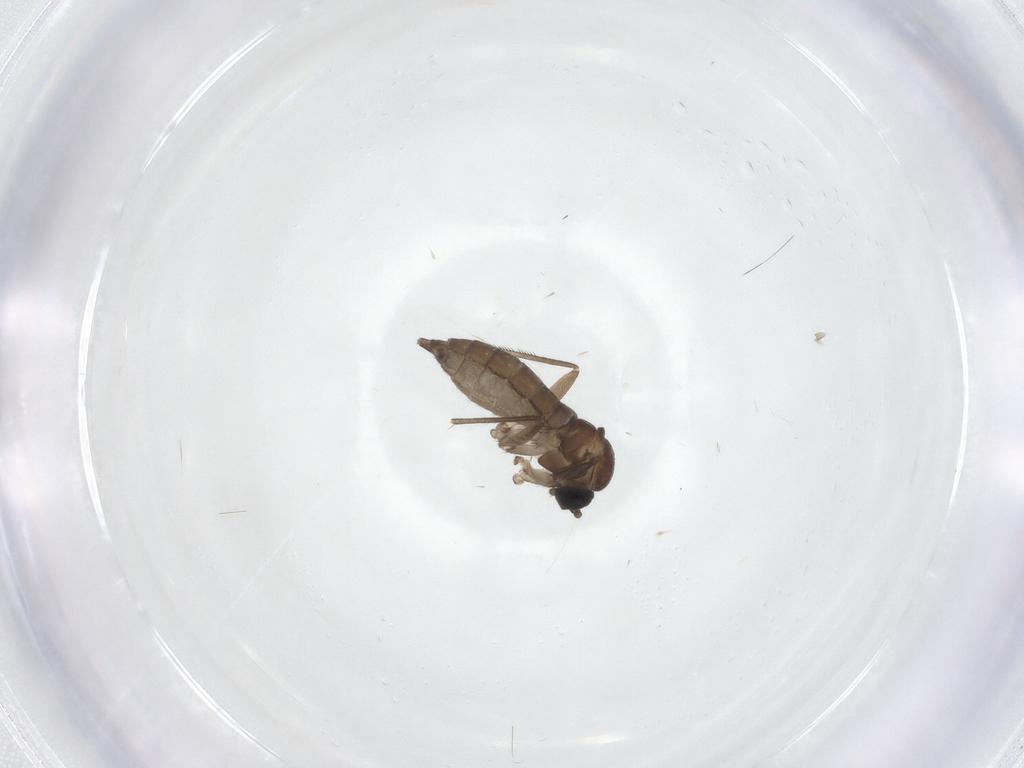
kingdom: Animalia
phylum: Arthropoda
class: Insecta
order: Diptera
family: Sciaridae
